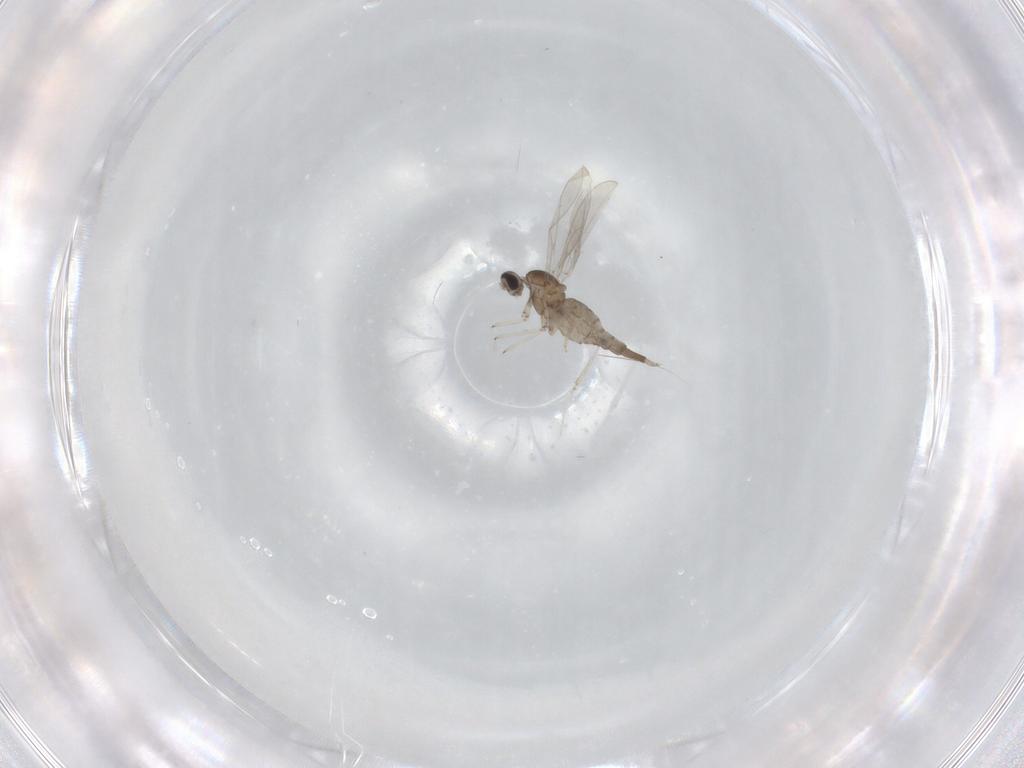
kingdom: Animalia
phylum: Arthropoda
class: Insecta
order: Diptera
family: Cecidomyiidae
